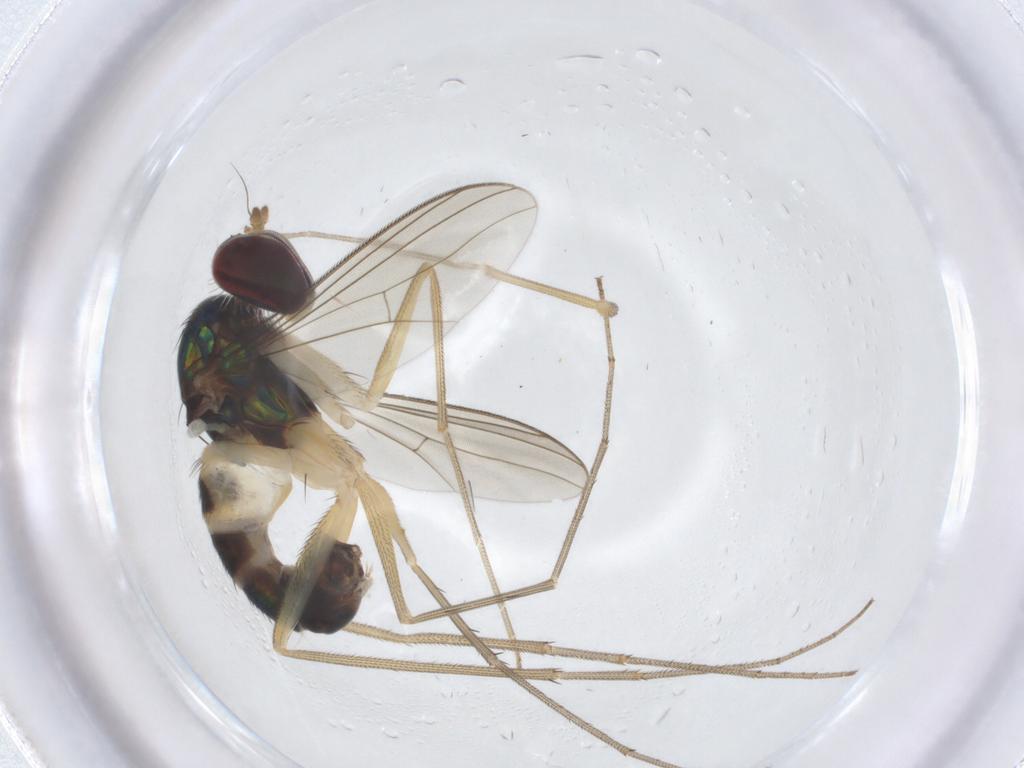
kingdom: Animalia
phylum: Arthropoda
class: Insecta
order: Diptera
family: Dolichopodidae
